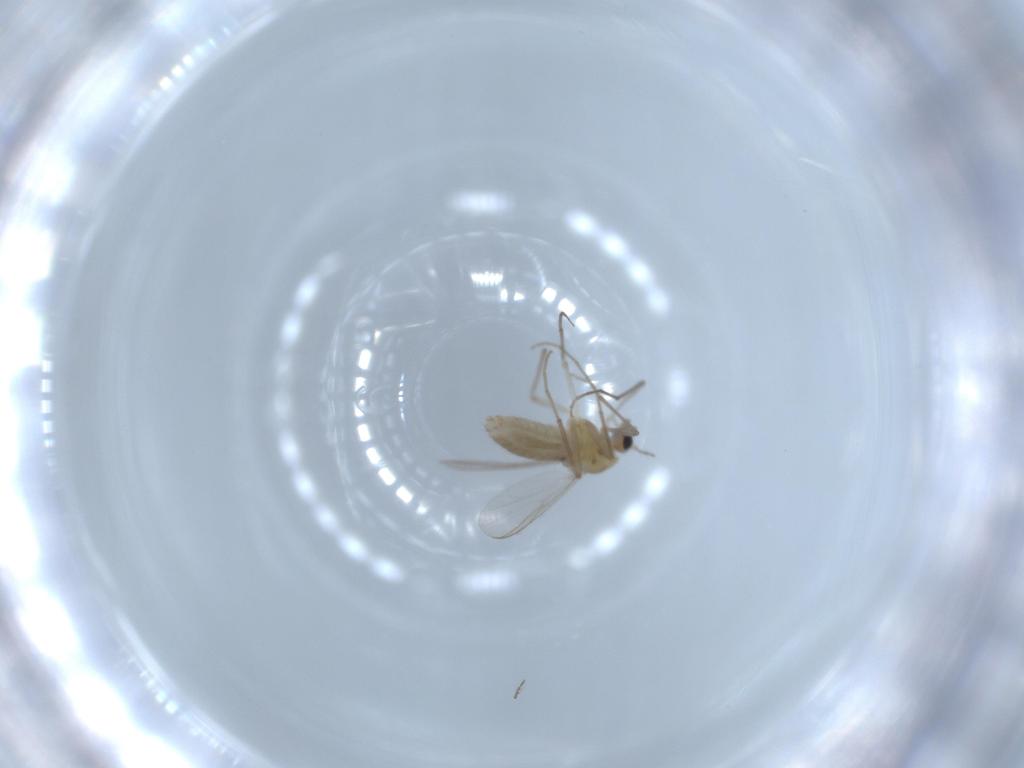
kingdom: Animalia
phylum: Arthropoda
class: Insecta
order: Diptera
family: Chironomidae
